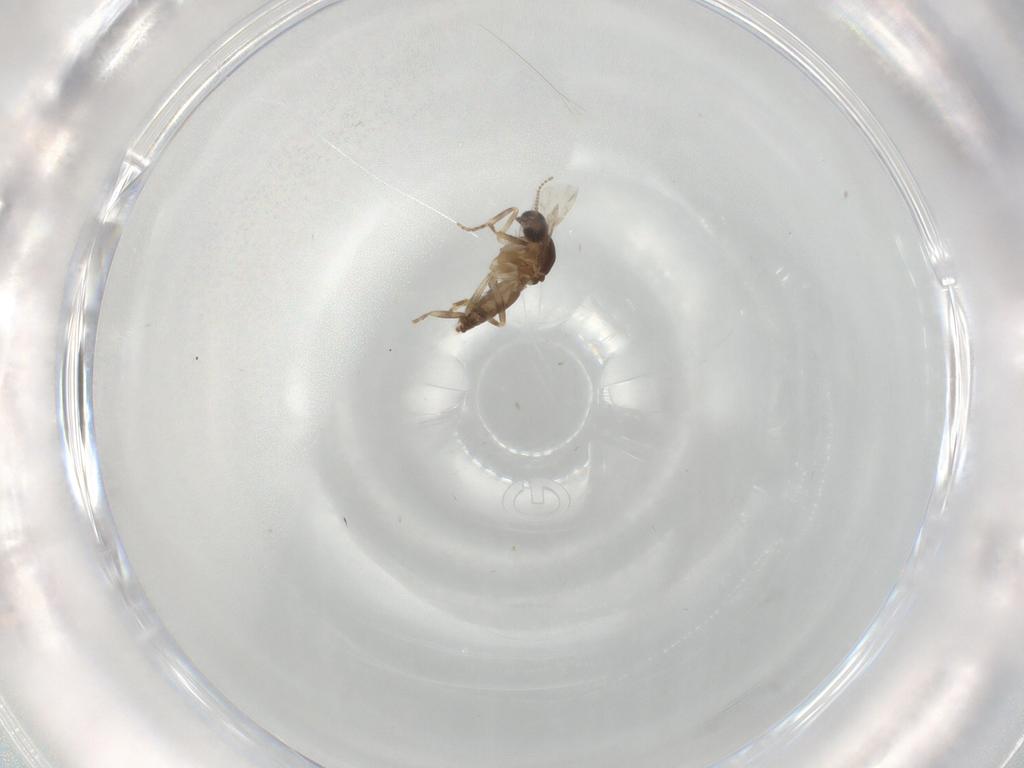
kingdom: Animalia
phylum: Arthropoda
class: Insecta
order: Diptera
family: Ceratopogonidae
